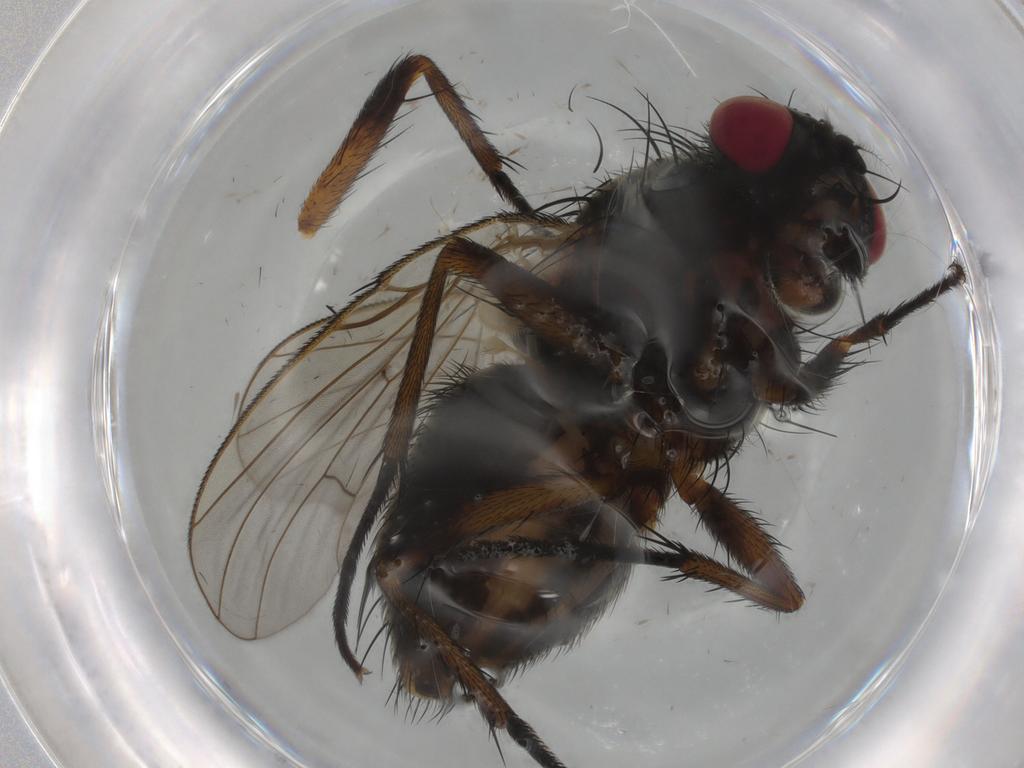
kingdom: Animalia
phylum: Arthropoda
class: Insecta
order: Diptera
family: Muscidae
